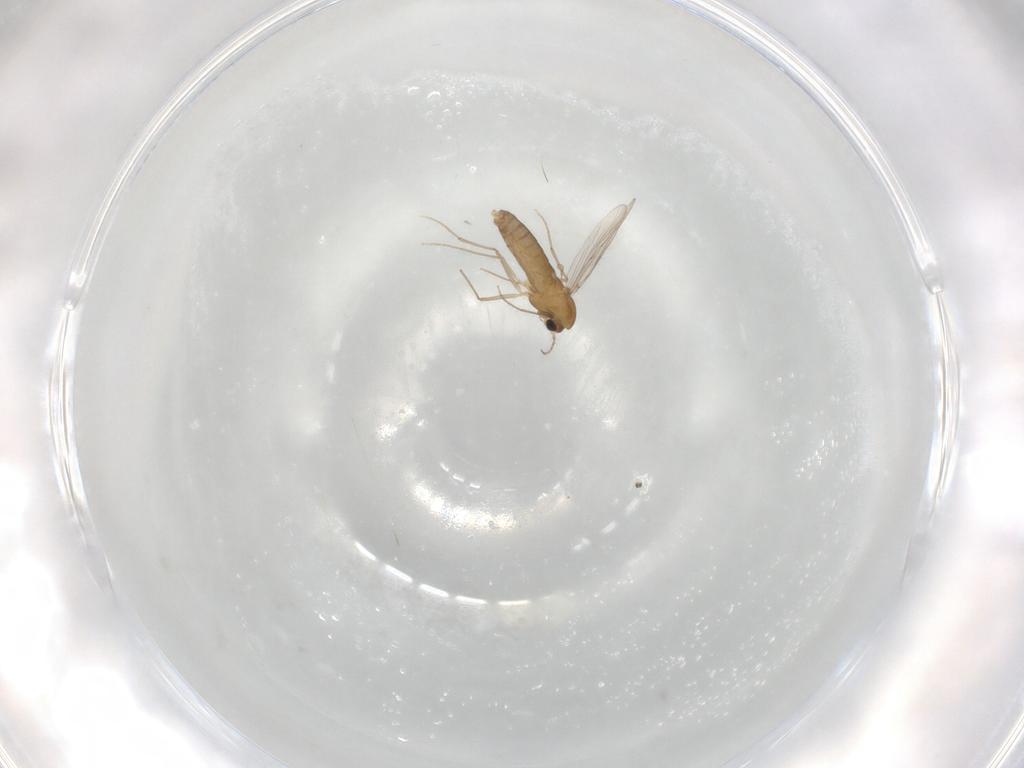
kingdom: Animalia
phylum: Arthropoda
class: Insecta
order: Diptera
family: Chironomidae
